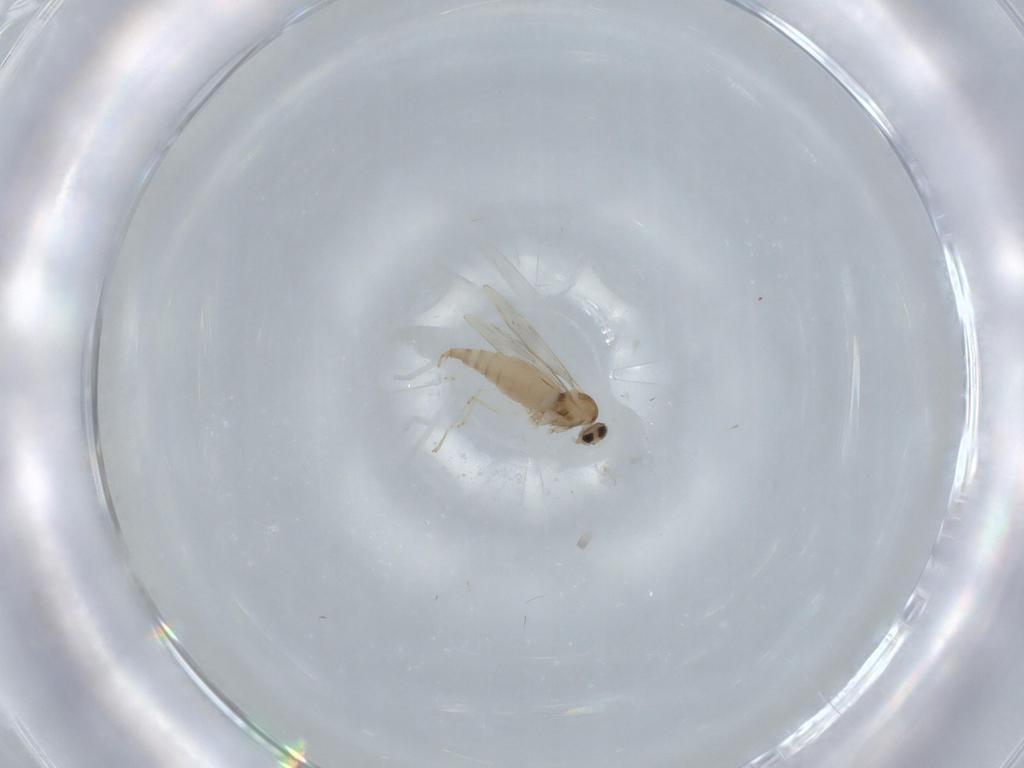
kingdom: Animalia
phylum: Arthropoda
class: Insecta
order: Diptera
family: Cecidomyiidae
